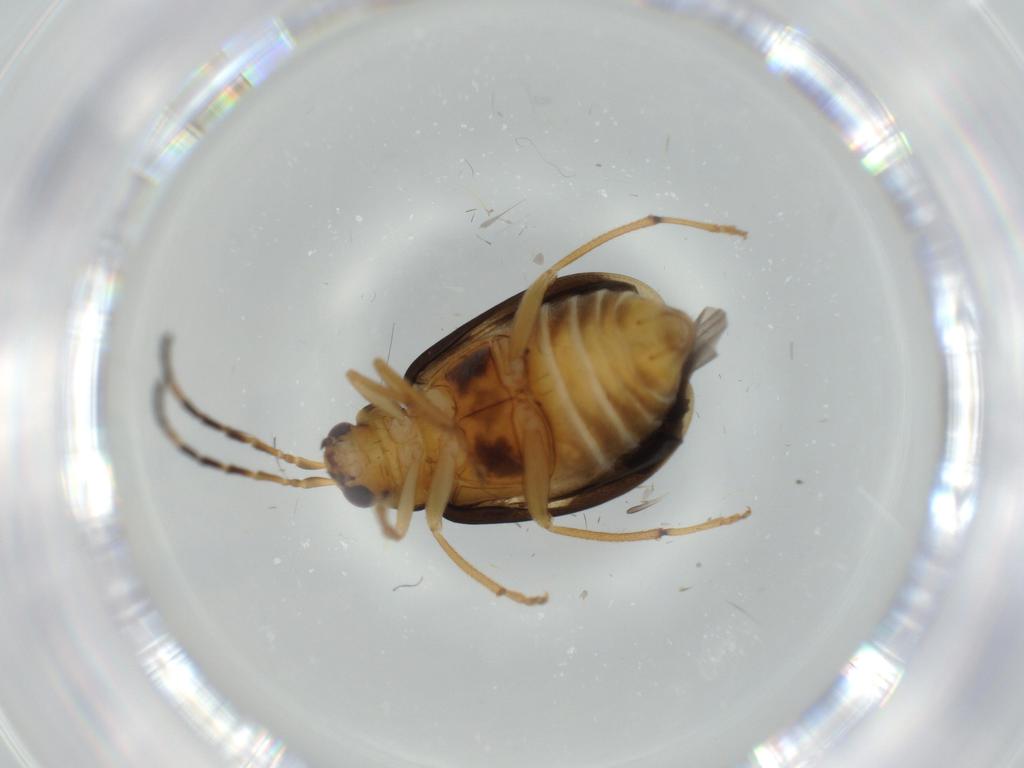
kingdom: Animalia
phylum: Arthropoda
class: Insecta
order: Coleoptera
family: Chrysomelidae
